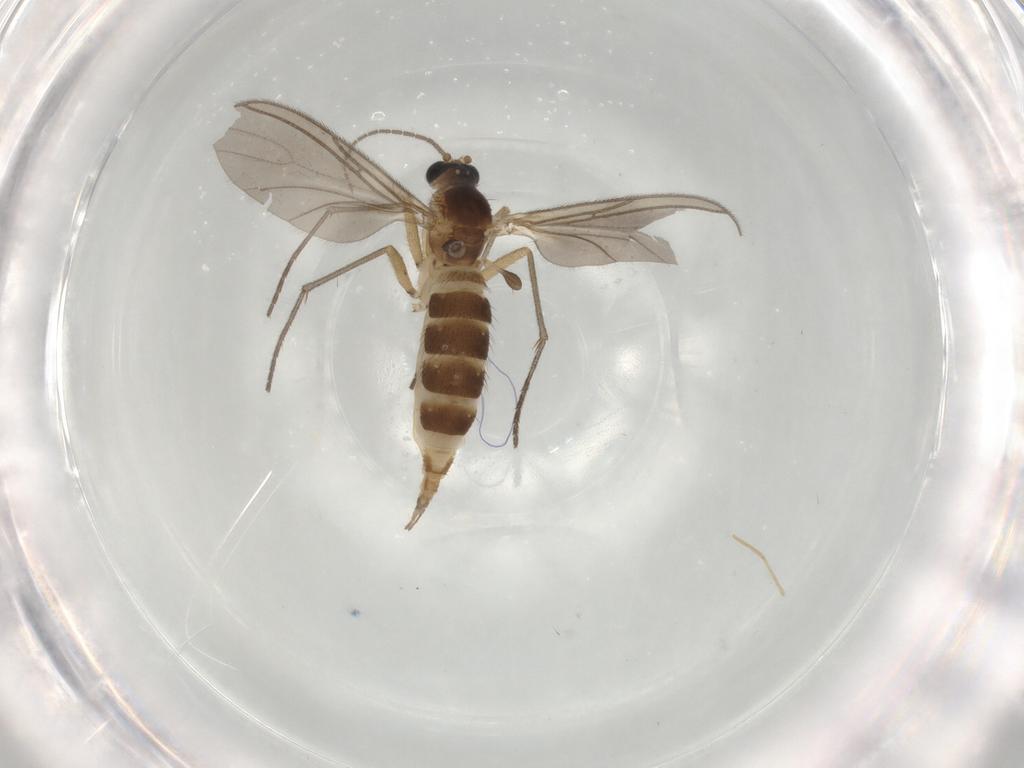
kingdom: Animalia
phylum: Arthropoda
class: Insecta
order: Diptera
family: Sciaridae
